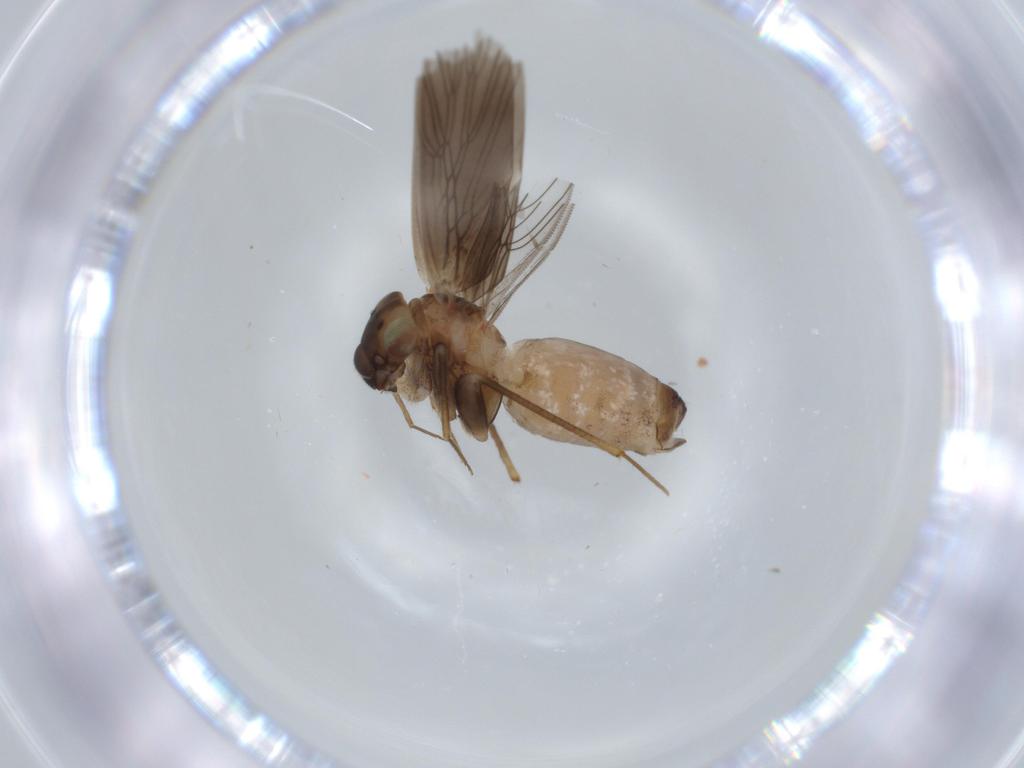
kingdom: Animalia
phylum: Arthropoda
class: Insecta
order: Psocodea
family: Lepidopsocidae
